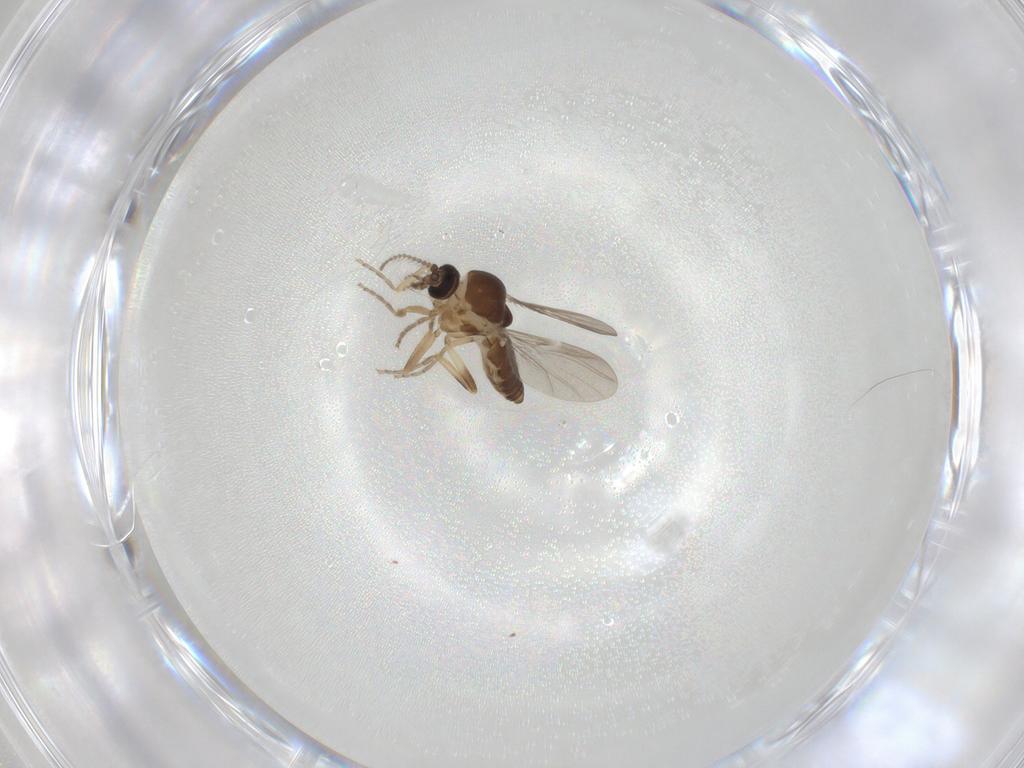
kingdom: Animalia
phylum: Arthropoda
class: Insecta
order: Diptera
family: Ceratopogonidae
